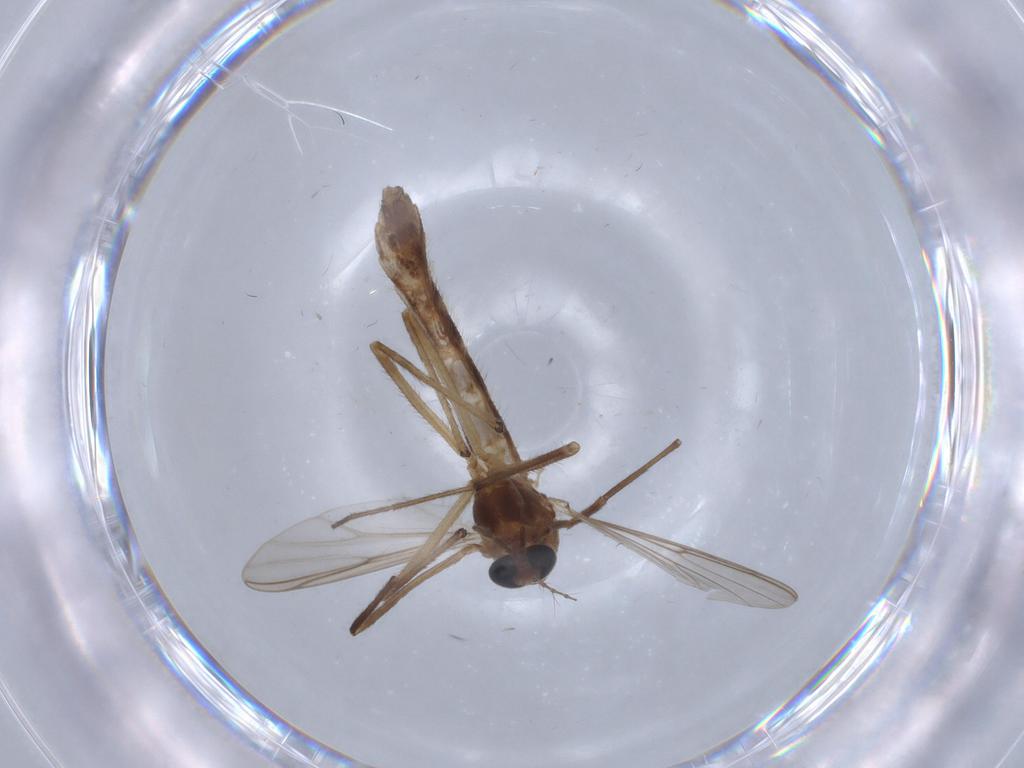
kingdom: Animalia
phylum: Arthropoda
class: Insecta
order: Diptera
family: Chironomidae
